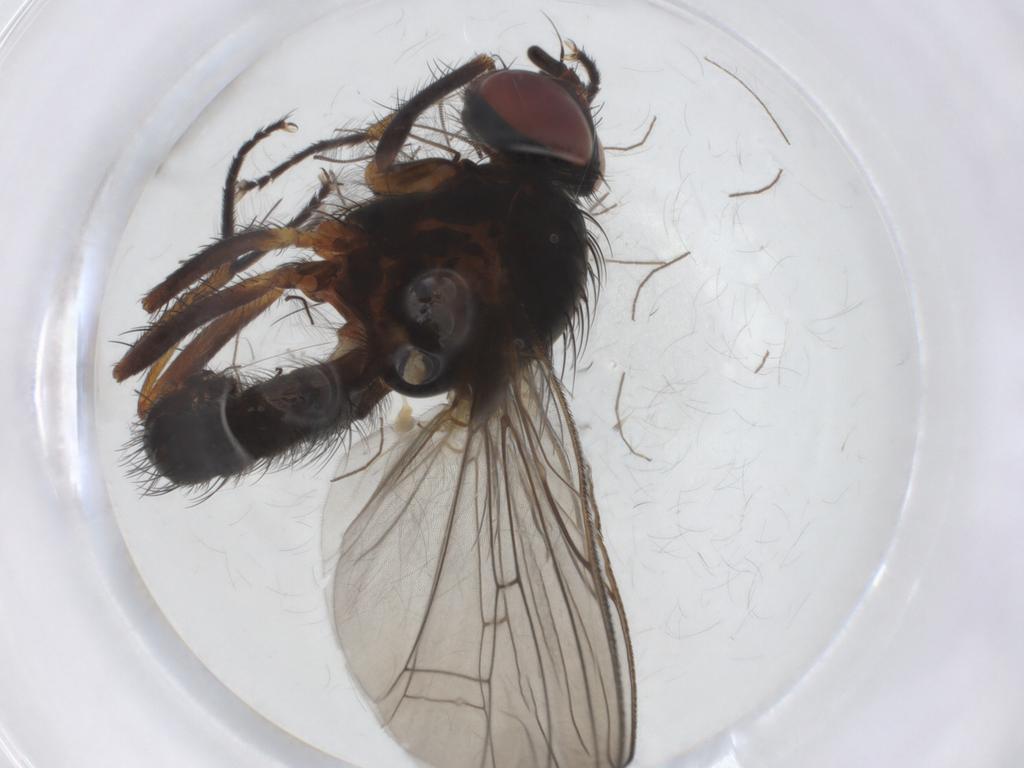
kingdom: Animalia
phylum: Arthropoda
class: Insecta
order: Diptera
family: Anthomyiidae
